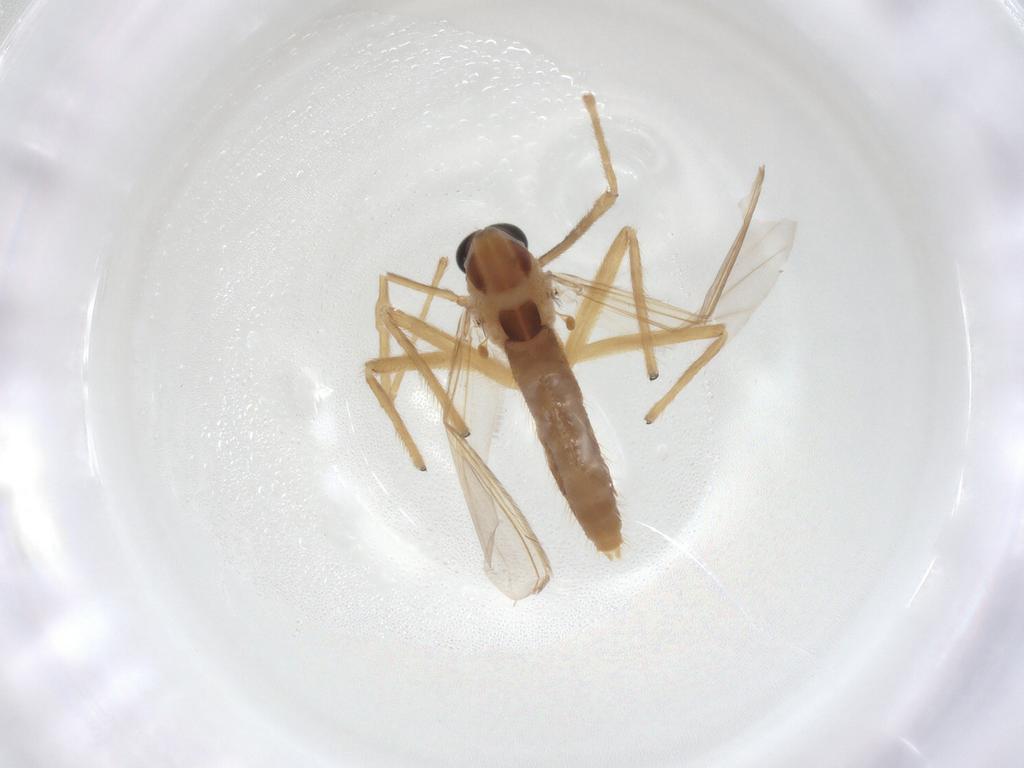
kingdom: Animalia
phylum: Arthropoda
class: Insecta
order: Diptera
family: Chironomidae
